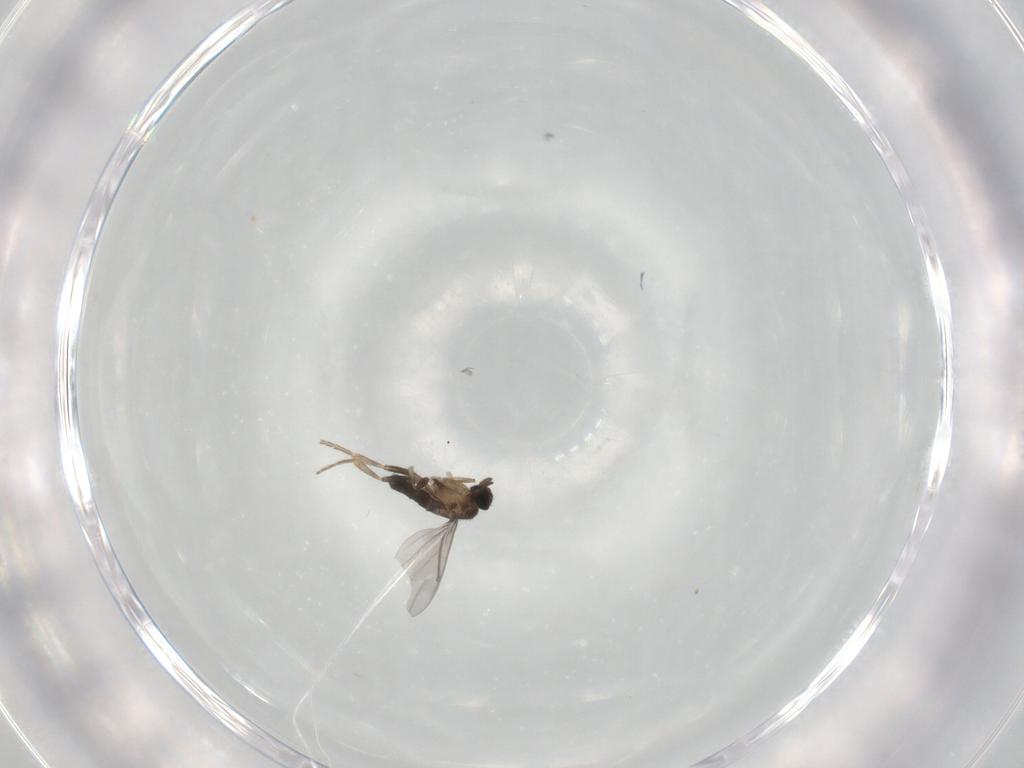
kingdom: Animalia
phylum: Arthropoda
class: Insecta
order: Diptera
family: Ceratopogonidae
